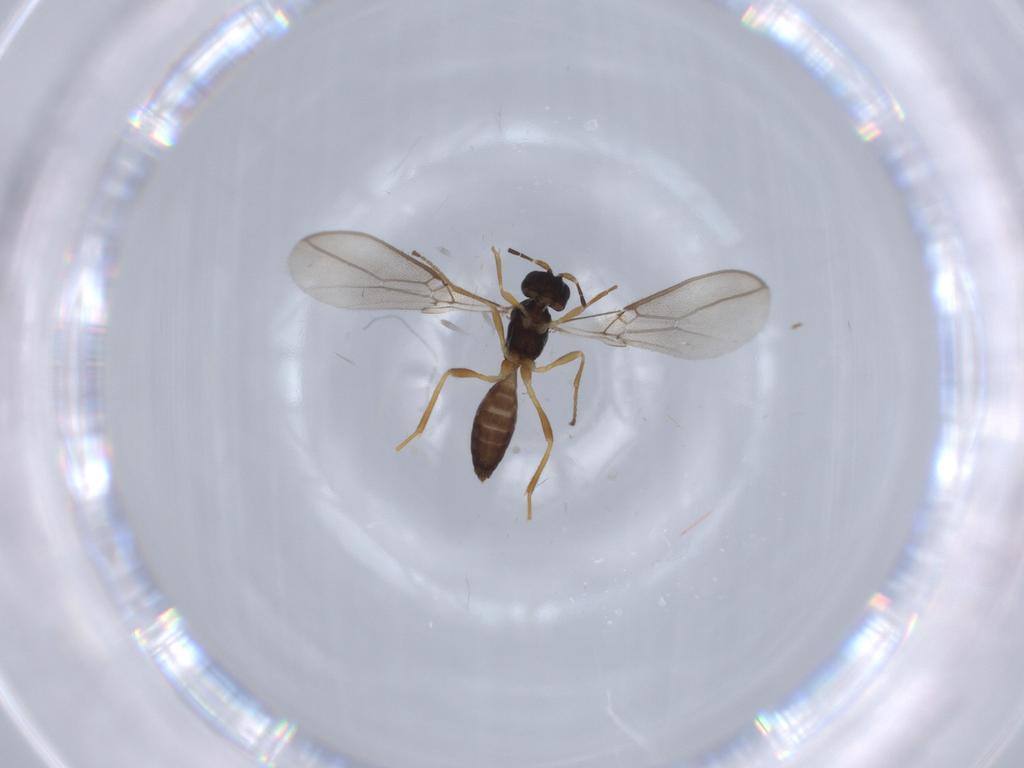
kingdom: Animalia
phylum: Arthropoda
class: Insecta
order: Hymenoptera
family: Braconidae
